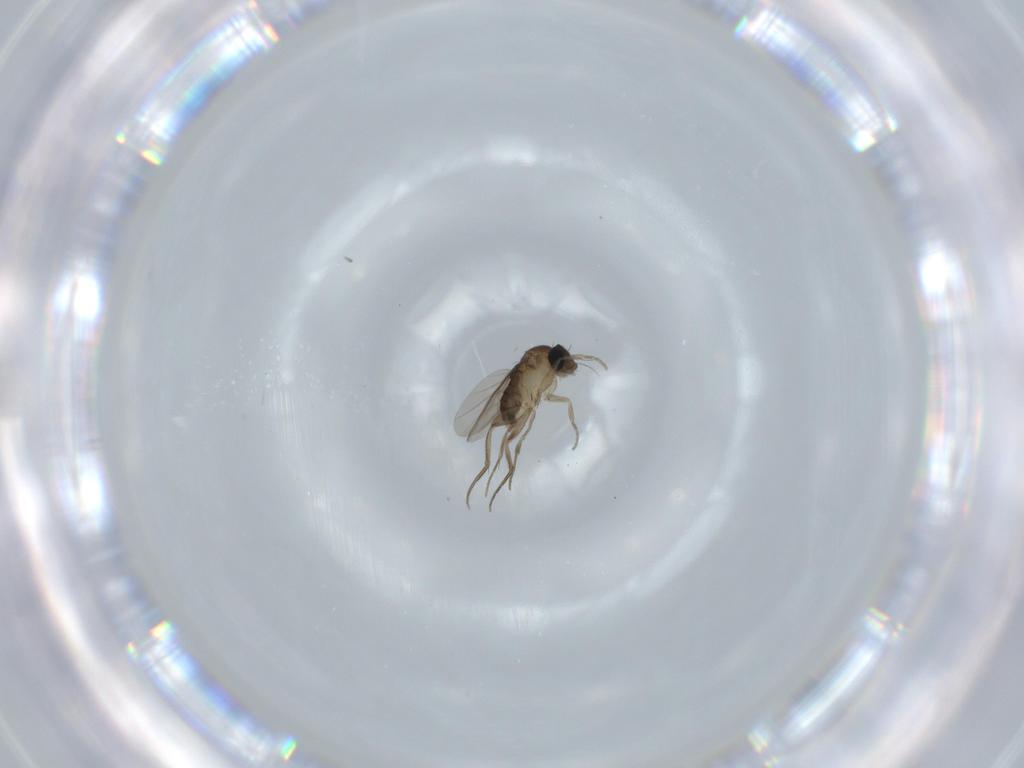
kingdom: Animalia
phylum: Arthropoda
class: Insecta
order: Diptera
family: Phoridae
